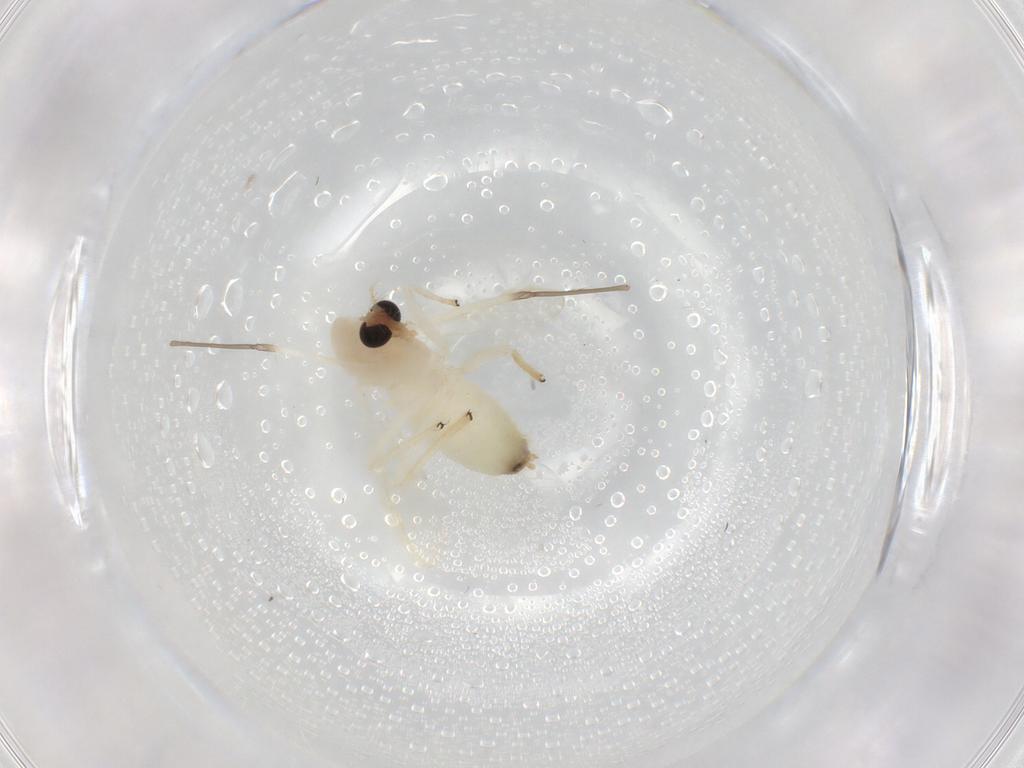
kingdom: Animalia
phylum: Arthropoda
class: Insecta
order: Diptera
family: Chironomidae
